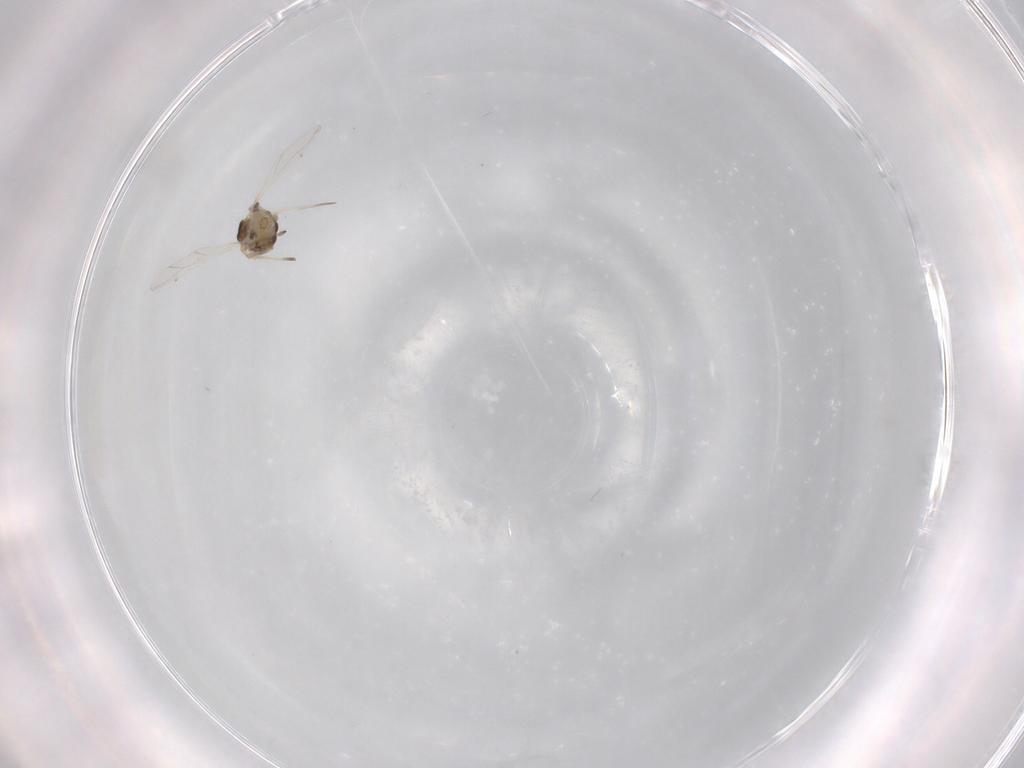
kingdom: Animalia
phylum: Arthropoda
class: Insecta
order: Hemiptera
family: Aphididae
